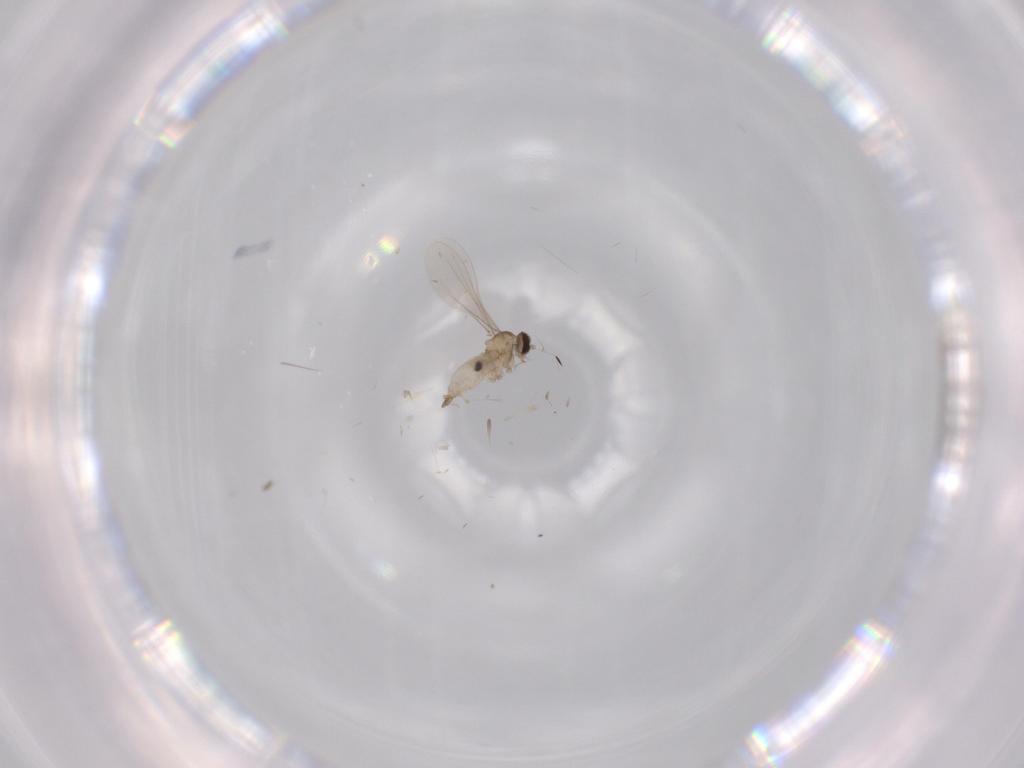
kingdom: Animalia
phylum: Arthropoda
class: Insecta
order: Diptera
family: Cecidomyiidae
